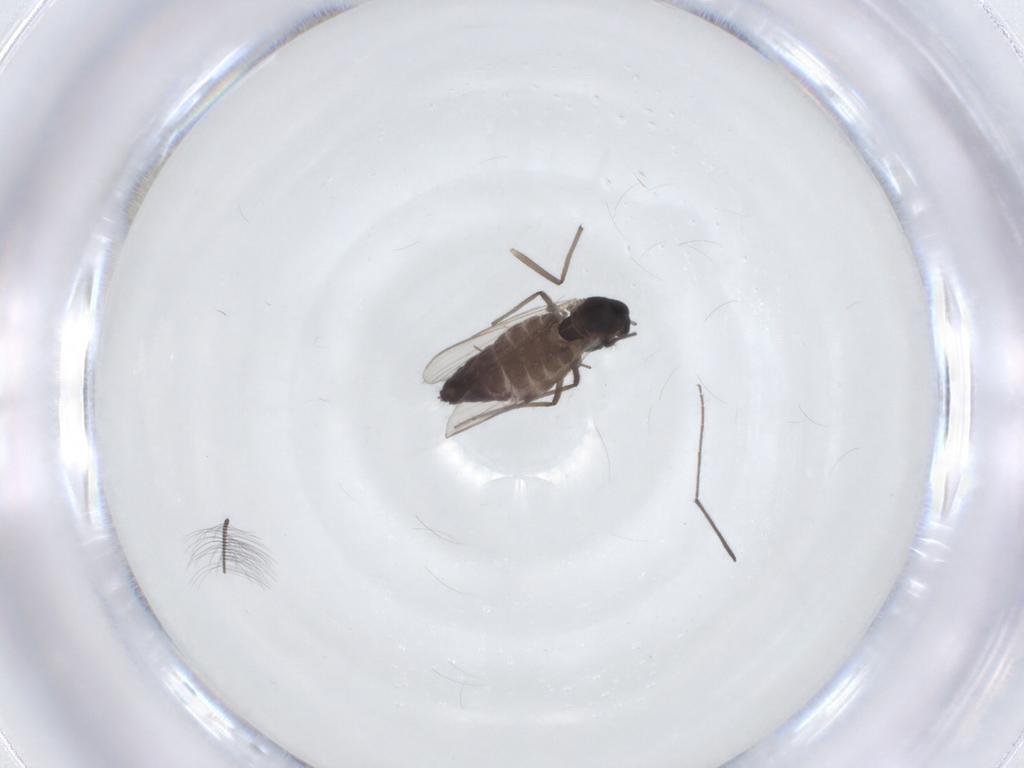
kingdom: Animalia
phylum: Arthropoda
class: Insecta
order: Diptera
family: Chironomidae
